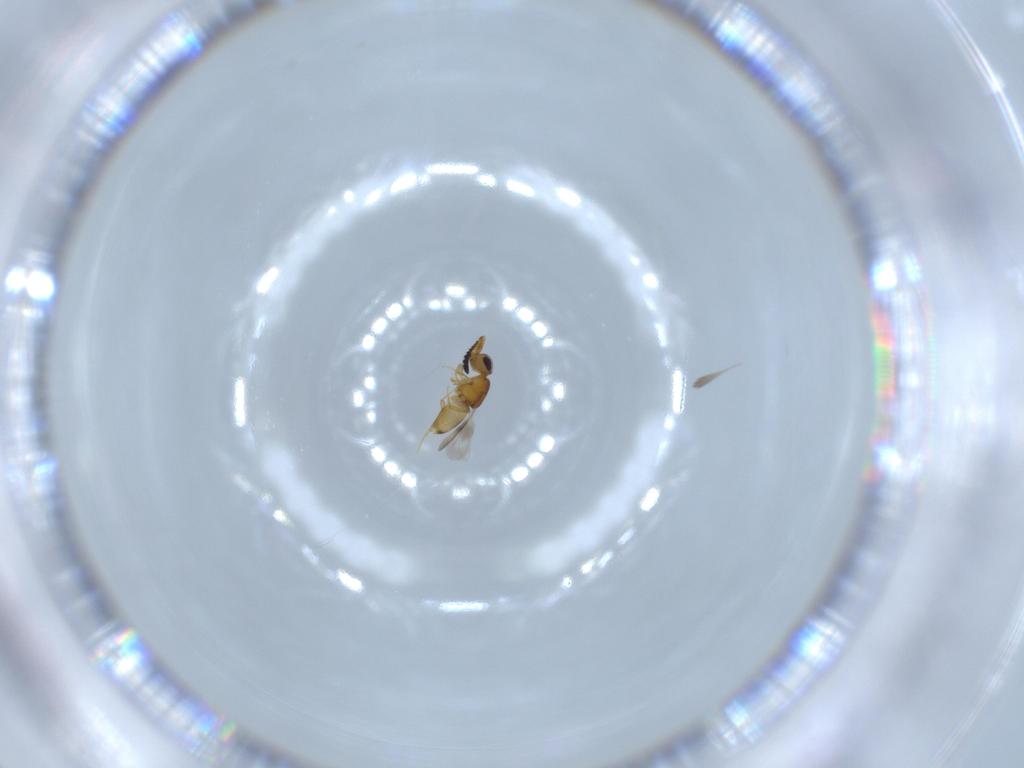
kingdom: Animalia
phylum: Arthropoda
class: Insecta
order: Hymenoptera
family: Ceraphronidae
